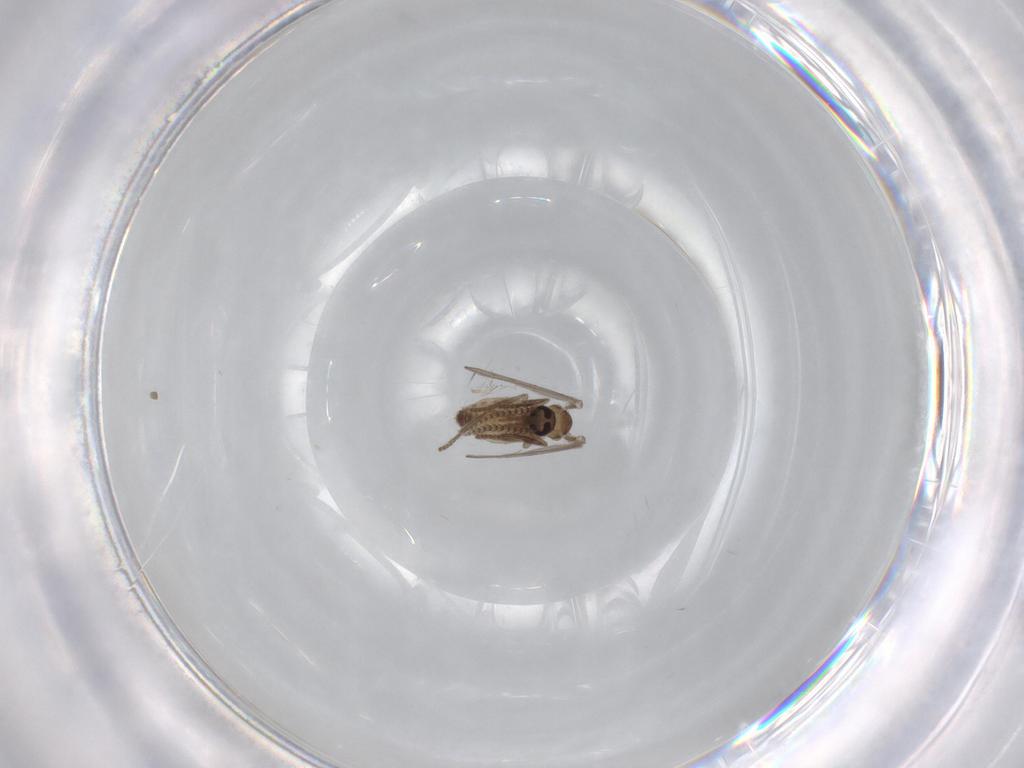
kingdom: Animalia
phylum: Arthropoda
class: Insecta
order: Diptera
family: Psychodidae
